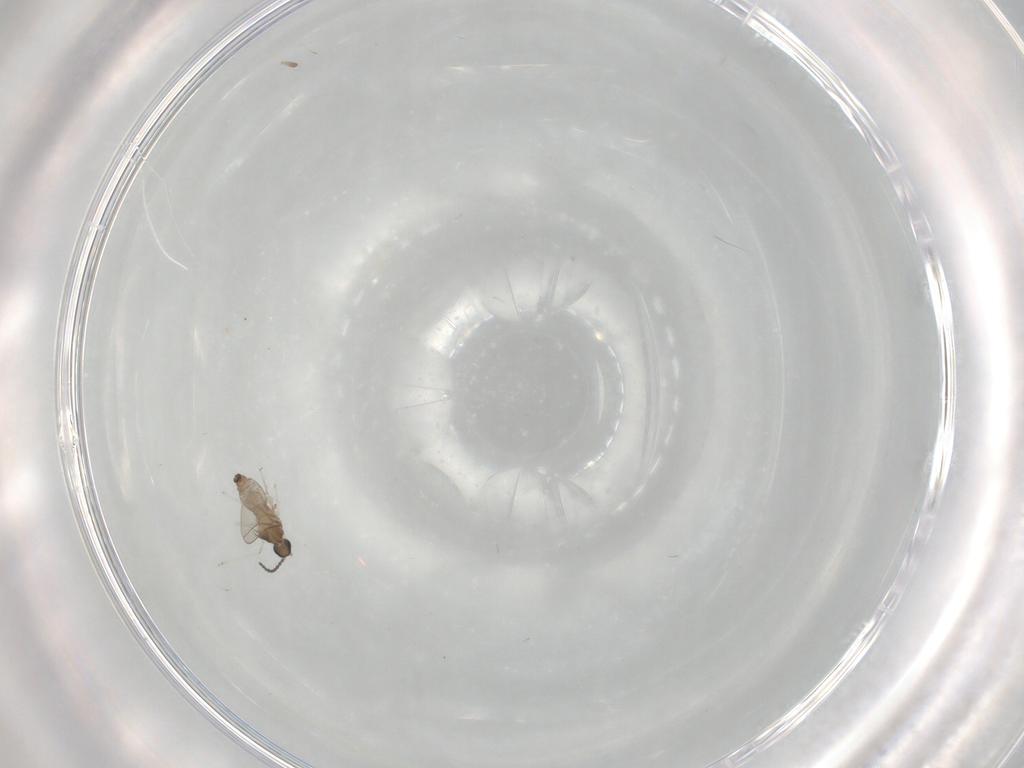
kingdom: Animalia
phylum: Arthropoda
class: Insecta
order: Diptera
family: Cecidomyiidae
